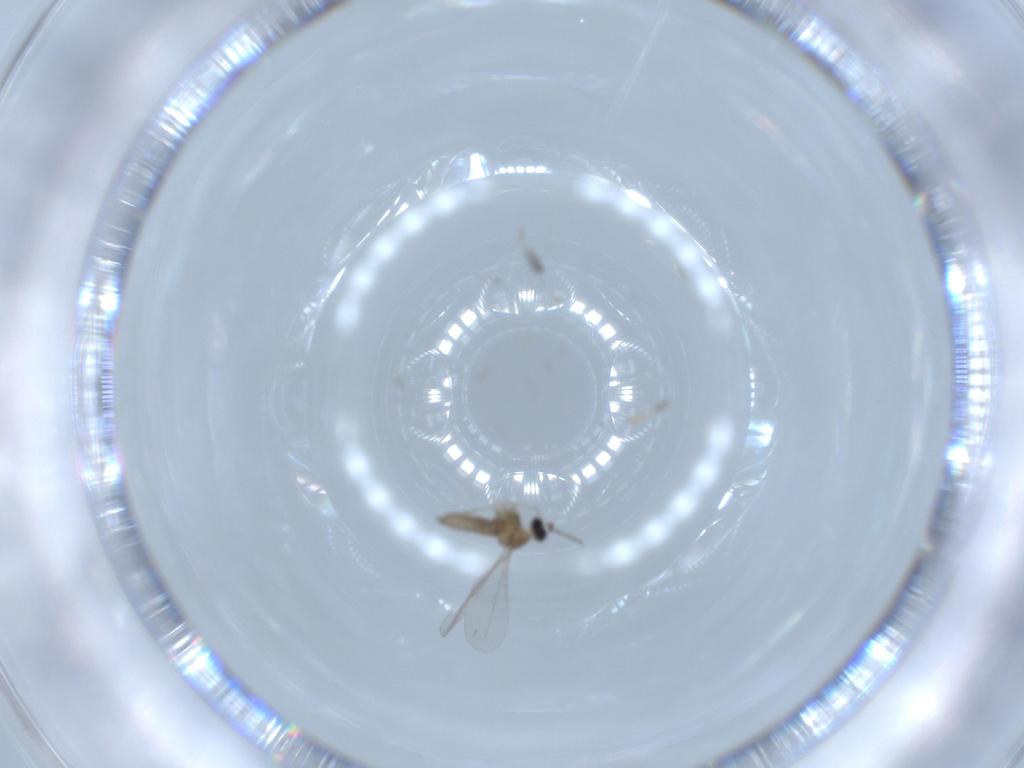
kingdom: Animalia
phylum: Arthropoda
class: Insecta
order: Diptera
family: Cecidomyiidae
